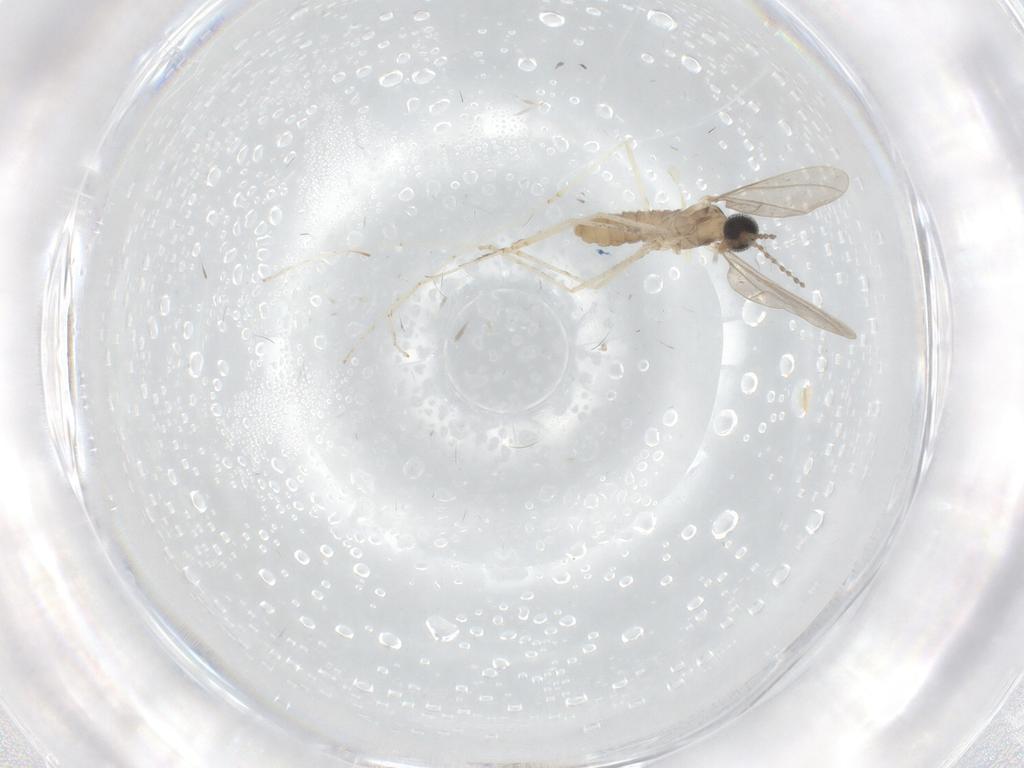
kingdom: Animalia
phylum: Arthropoda
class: Insecta
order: Diptera
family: Cecidomyiidae
